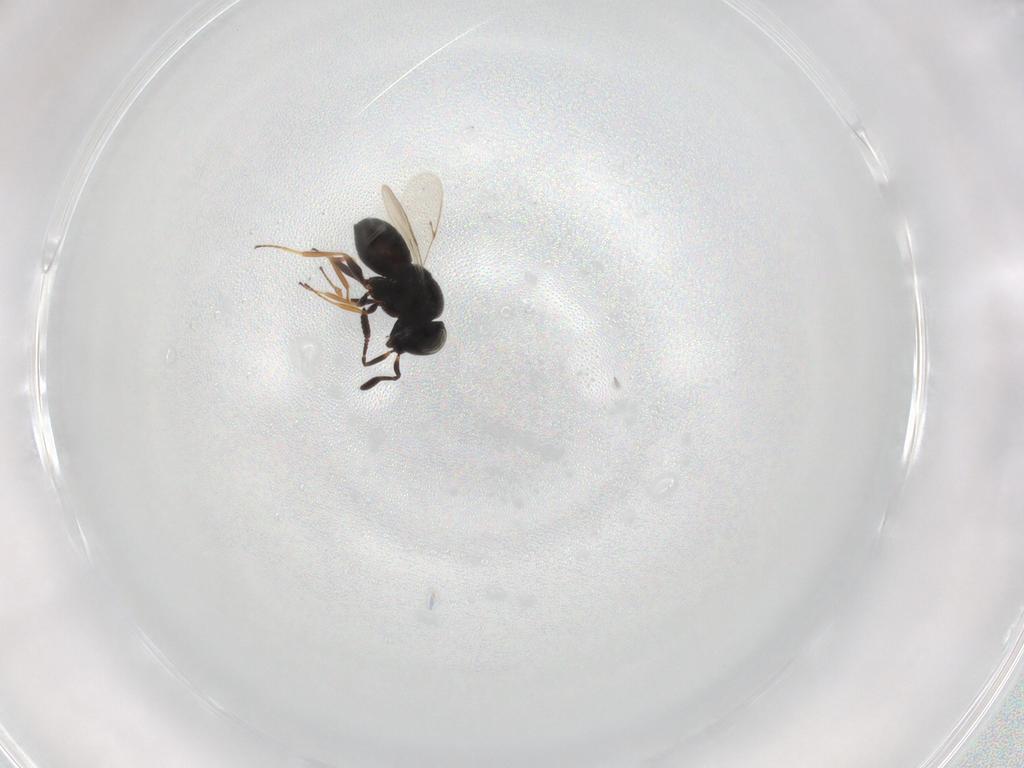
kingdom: Animalia
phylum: Arthropoda
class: Insecta
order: Hymenoptera
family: Scelionidae
